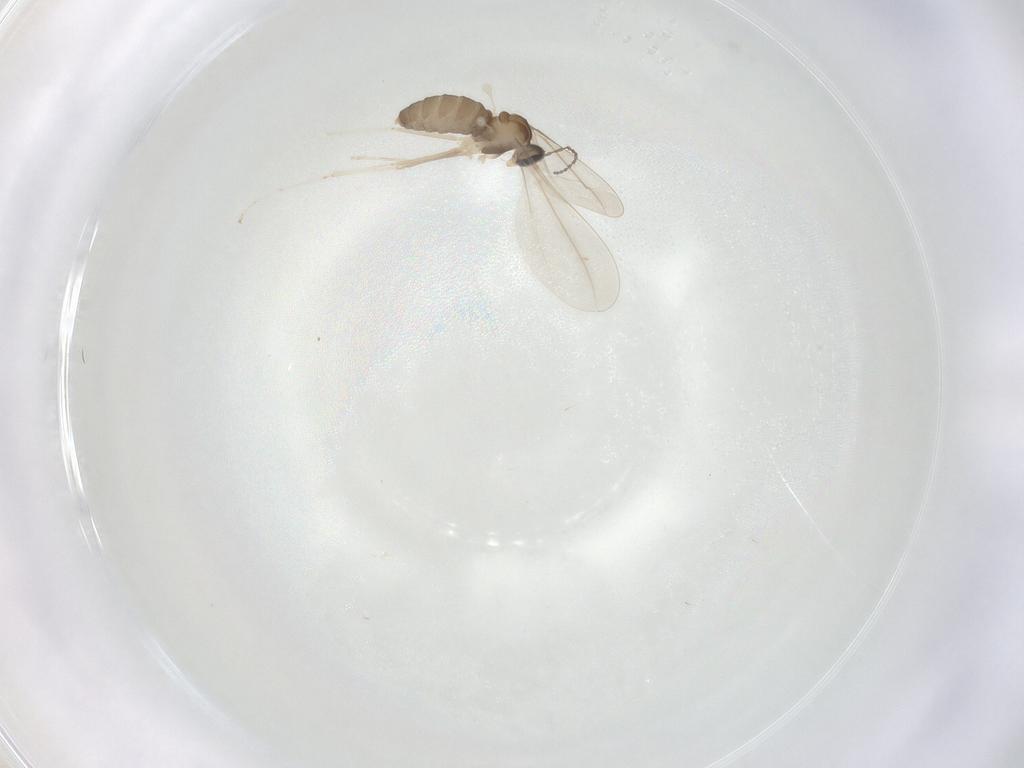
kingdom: Animalia
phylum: Arthropoda
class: Insecta
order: Diptera
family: Cecidomyiidae
